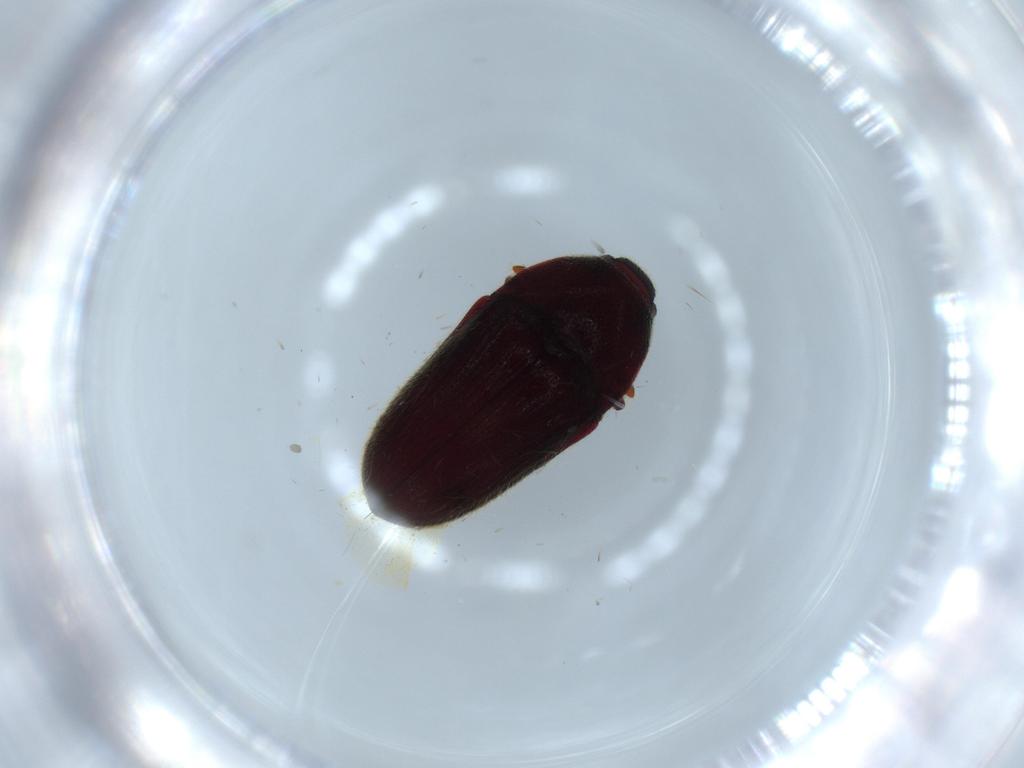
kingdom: Animalia
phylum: Arthropoda
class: Insecta
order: Coleoptera
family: Throscidae
